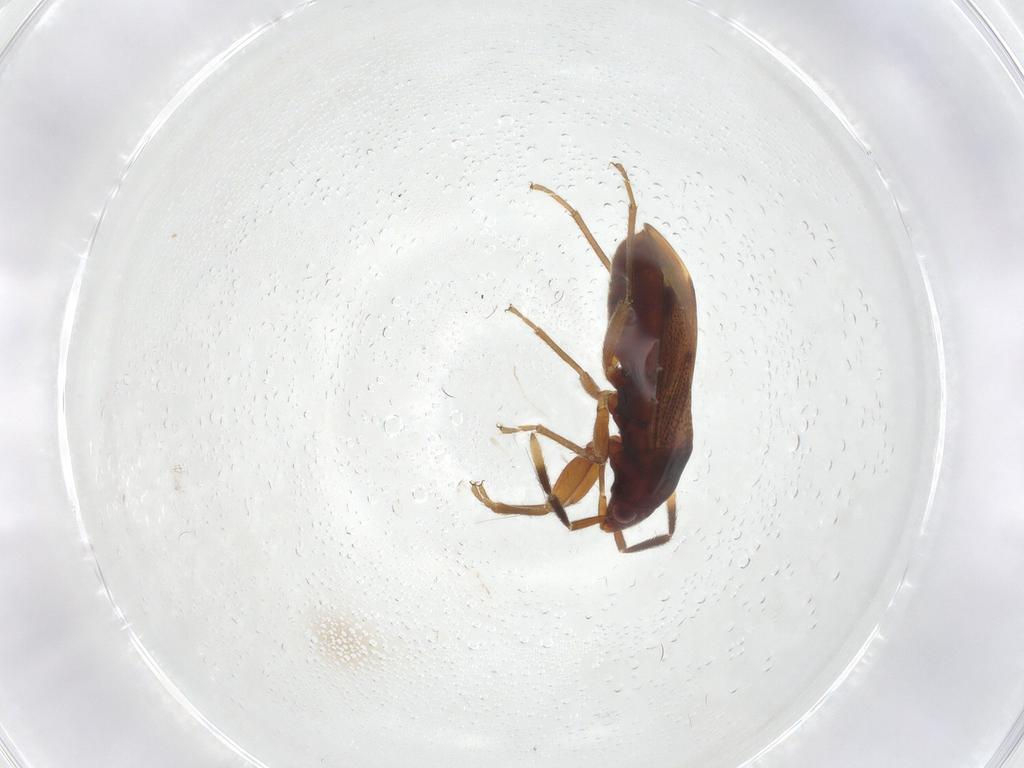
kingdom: Animalia
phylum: Arthropoda
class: Insecta
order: Hemiptera
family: Rhyparochromidae
